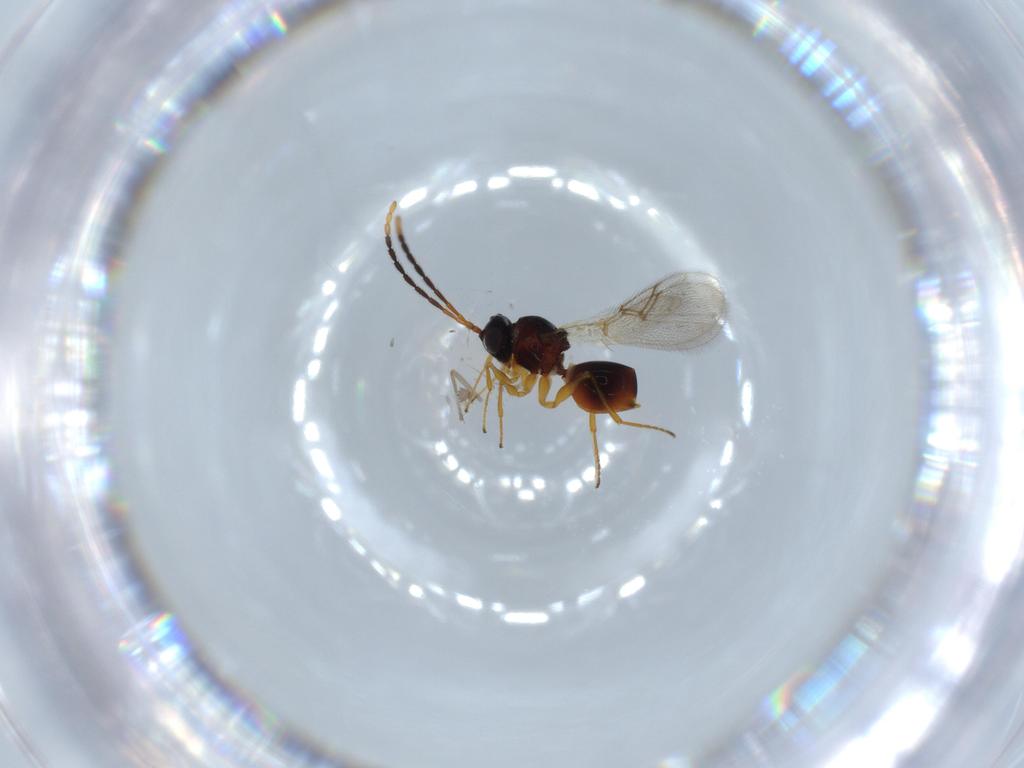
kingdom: Animalia
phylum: Arthropoda
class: Insecta
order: Hymenoptera
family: Figitidae
